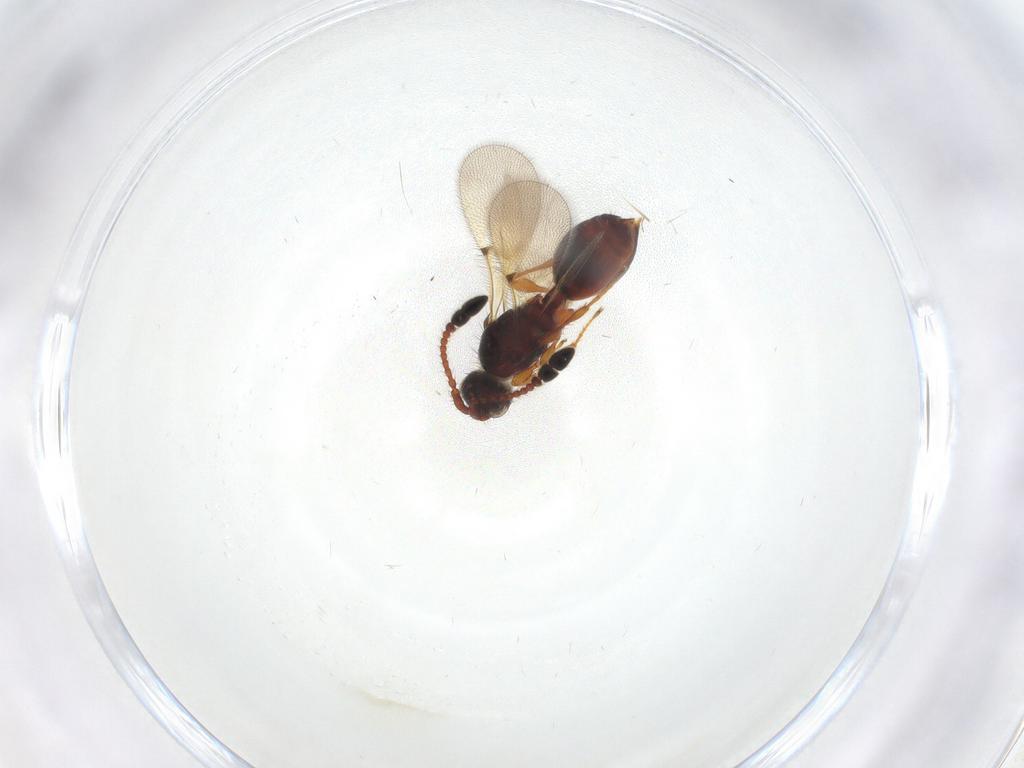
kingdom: Animalia
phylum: Arthropoda
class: Insecta
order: Hymenoptera
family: Diapriidae
